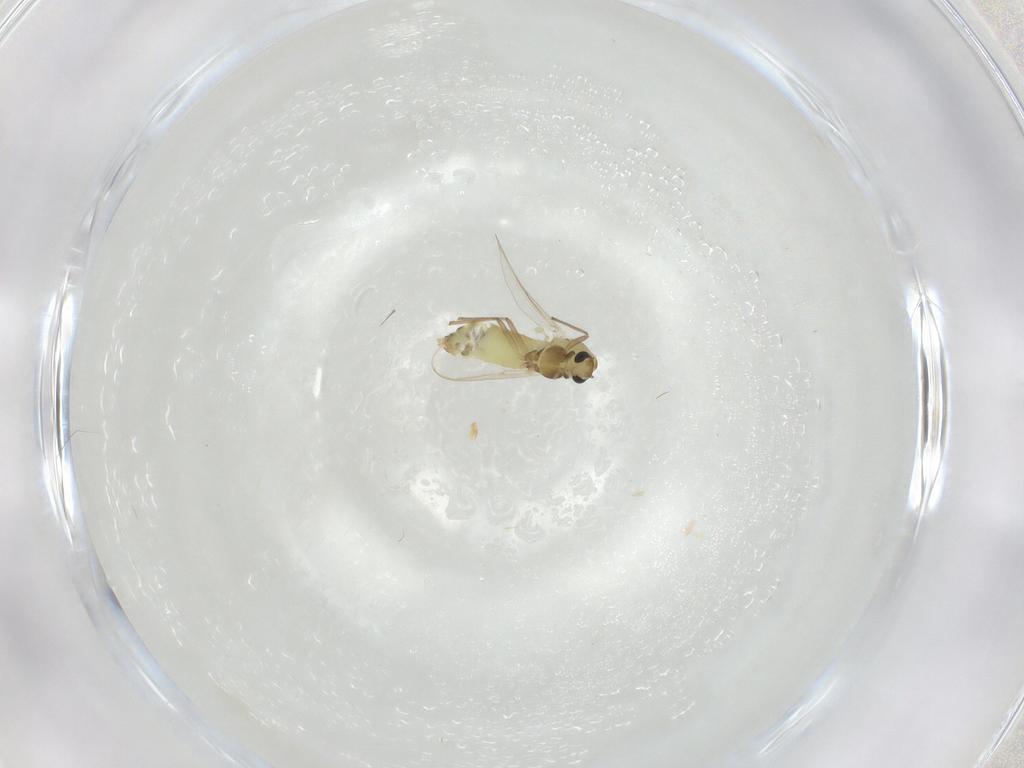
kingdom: Animalia
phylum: Arthropoda
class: Insecta
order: Diptera
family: Chironomidae
